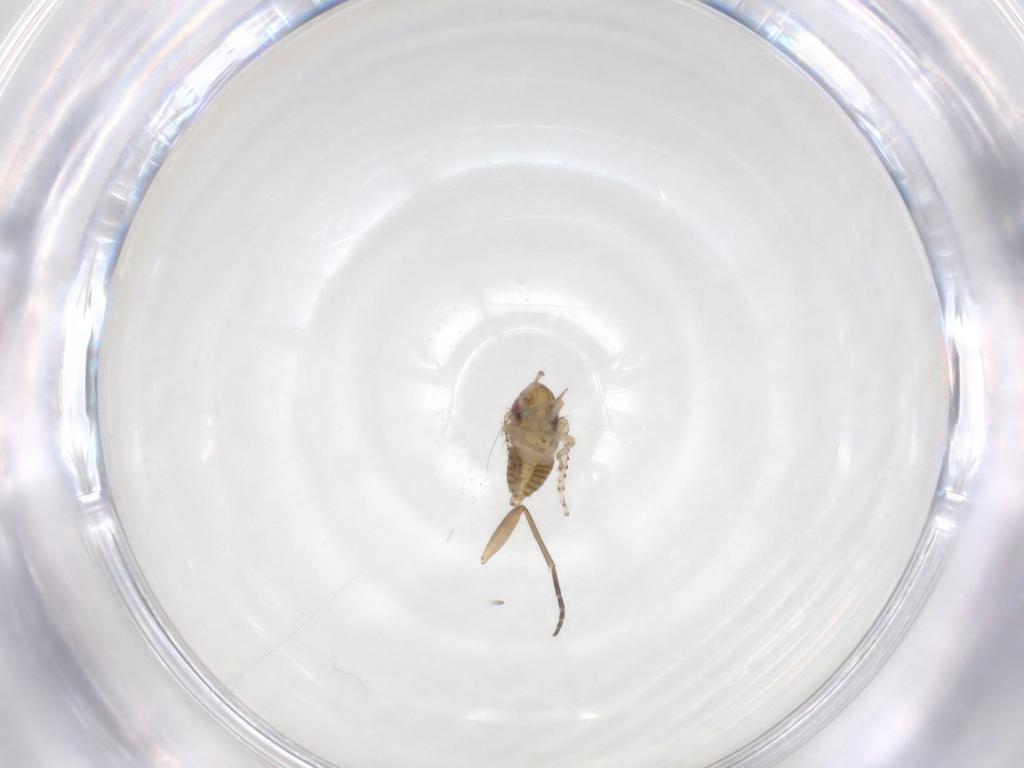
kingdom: Animalia
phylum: Arthropoda
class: Insecta
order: Hemiptera
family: Cicadellidae
